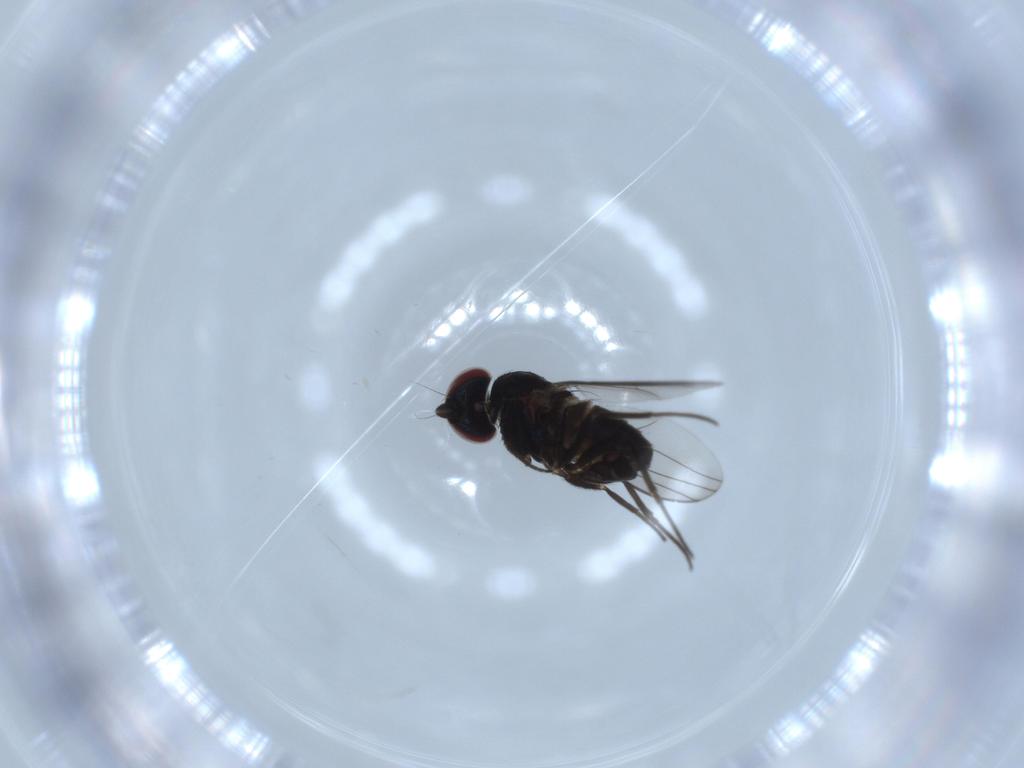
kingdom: Animalia
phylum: Arthropoda
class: Insecta
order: Diptera
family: Dolichopodidae
